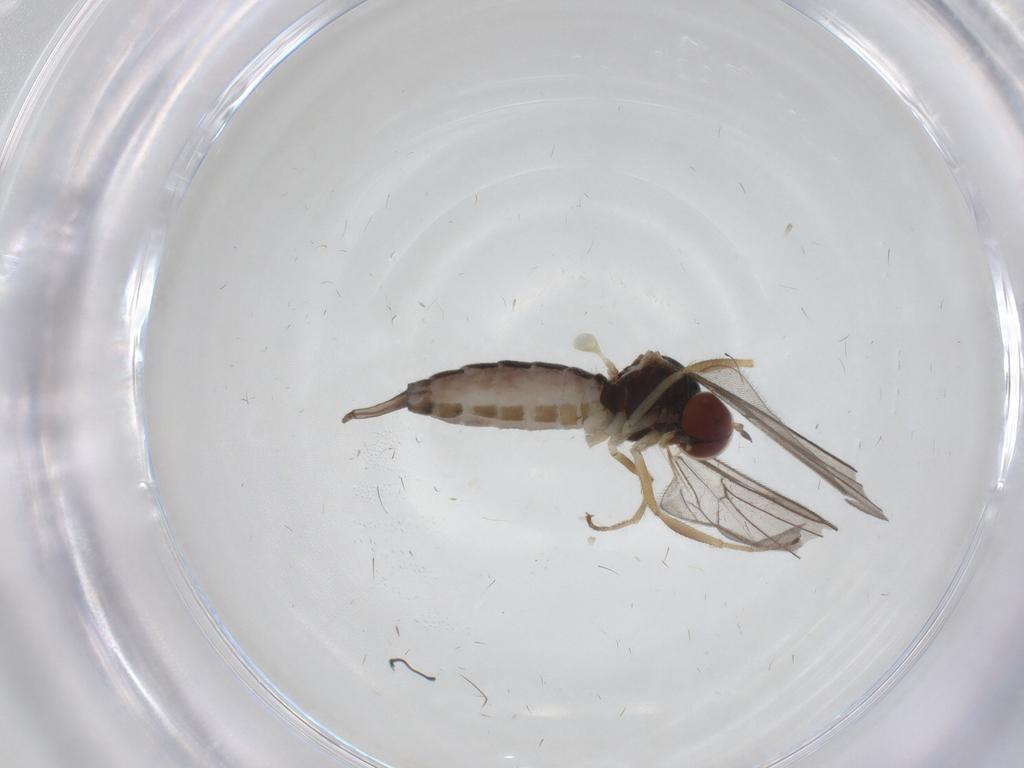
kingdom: Animalia
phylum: Arthropoda
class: Insecta
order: Diptera
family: Hybotidae
